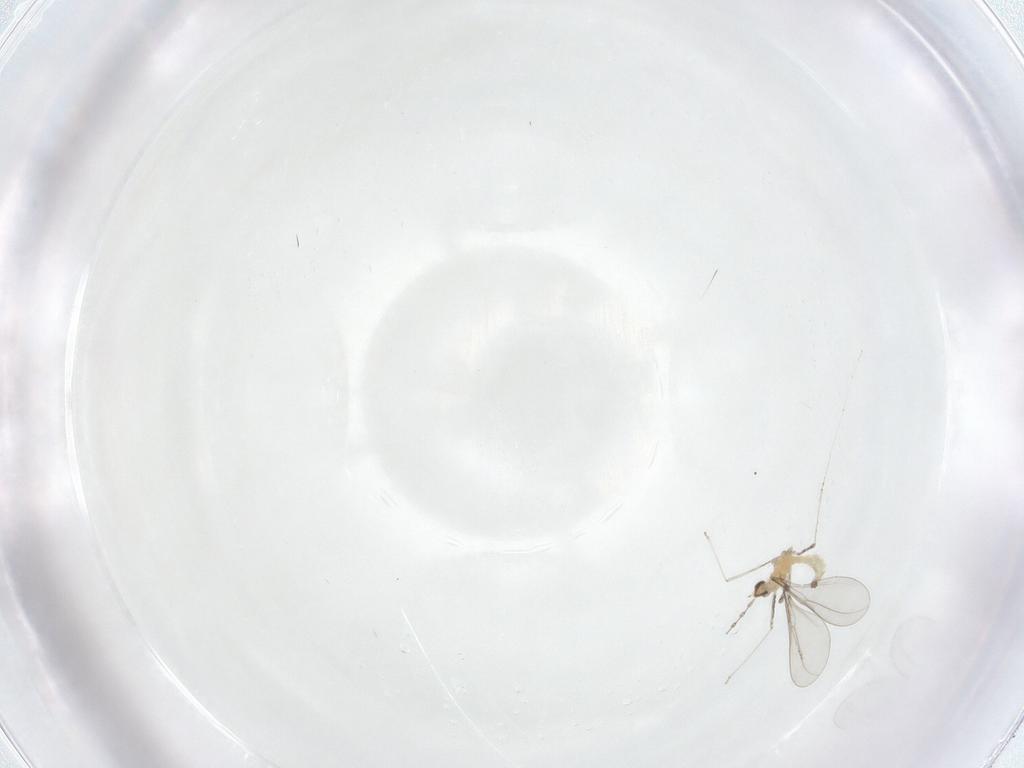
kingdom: Animalia
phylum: Arthropoda
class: Insecta
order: Diptera
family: Cecidomyiidae
